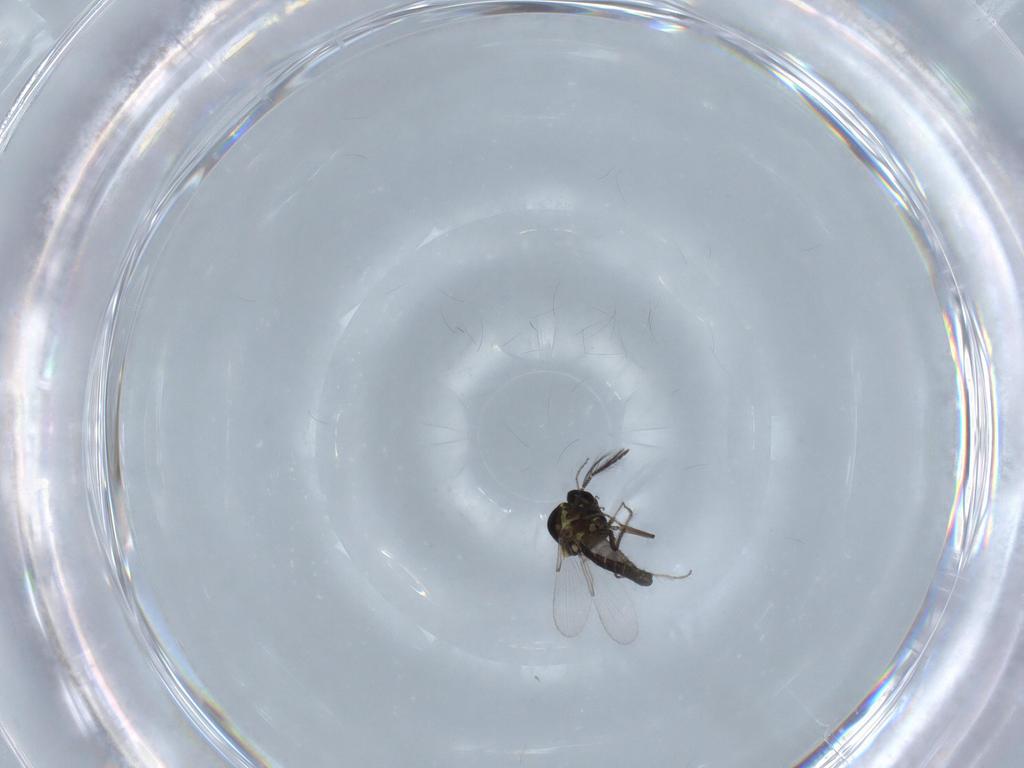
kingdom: Animalia
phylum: Arthropoda
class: Insecta
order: Diptera
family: Ceratopogonidae
